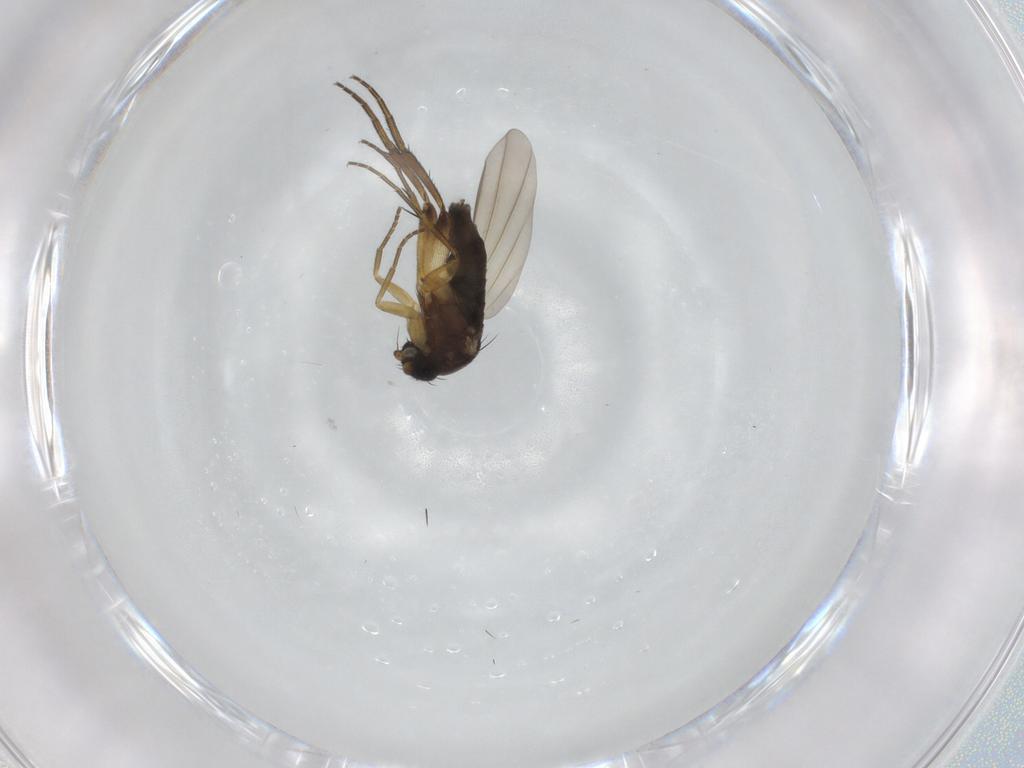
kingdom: Animalia
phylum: Arthropoda
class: Insecta
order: Diptera
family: Phoridae
